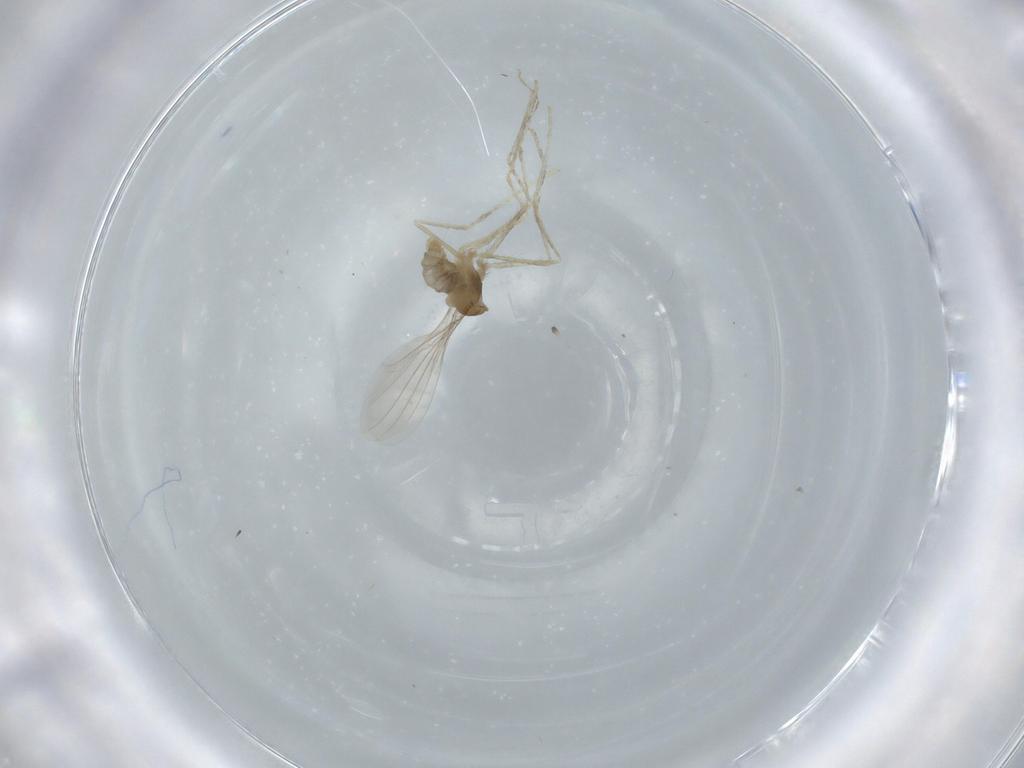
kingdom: Animalia
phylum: Arthropoda
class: Insecta
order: Diptera
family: Cecidomyiidae
